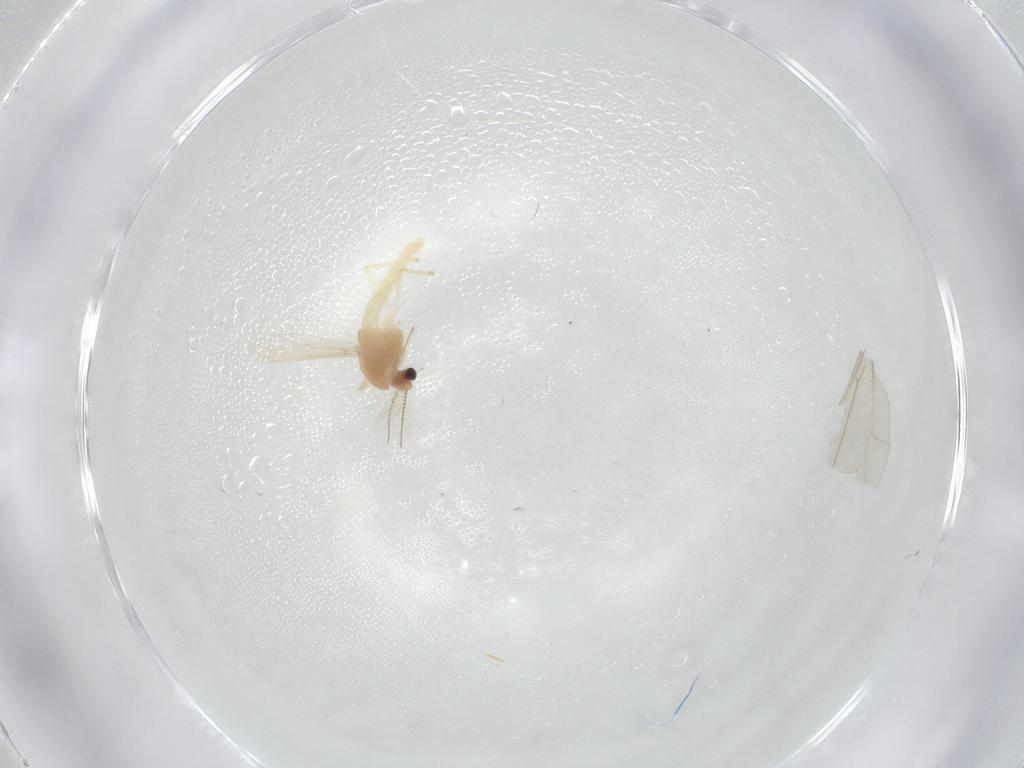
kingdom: Animalia
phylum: Arthropoda
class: Insecta
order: Diptera
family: Chironomidae
